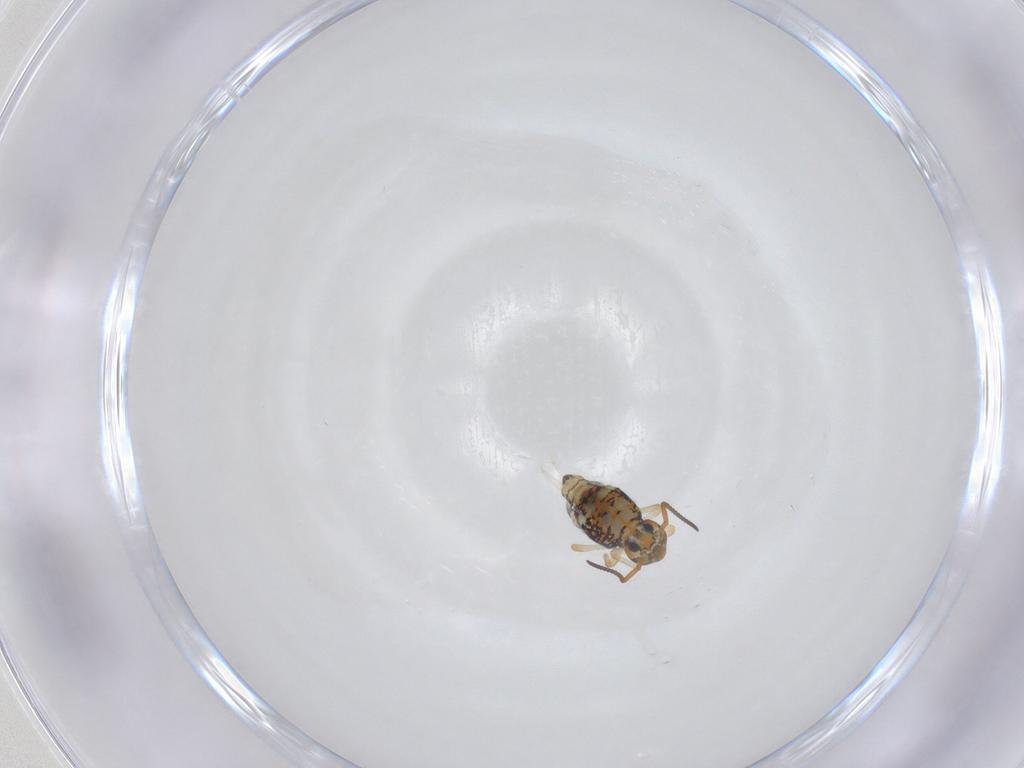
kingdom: Animalia
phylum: Arthropoda
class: Collembola
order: Symphypleona
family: Katiannidae
